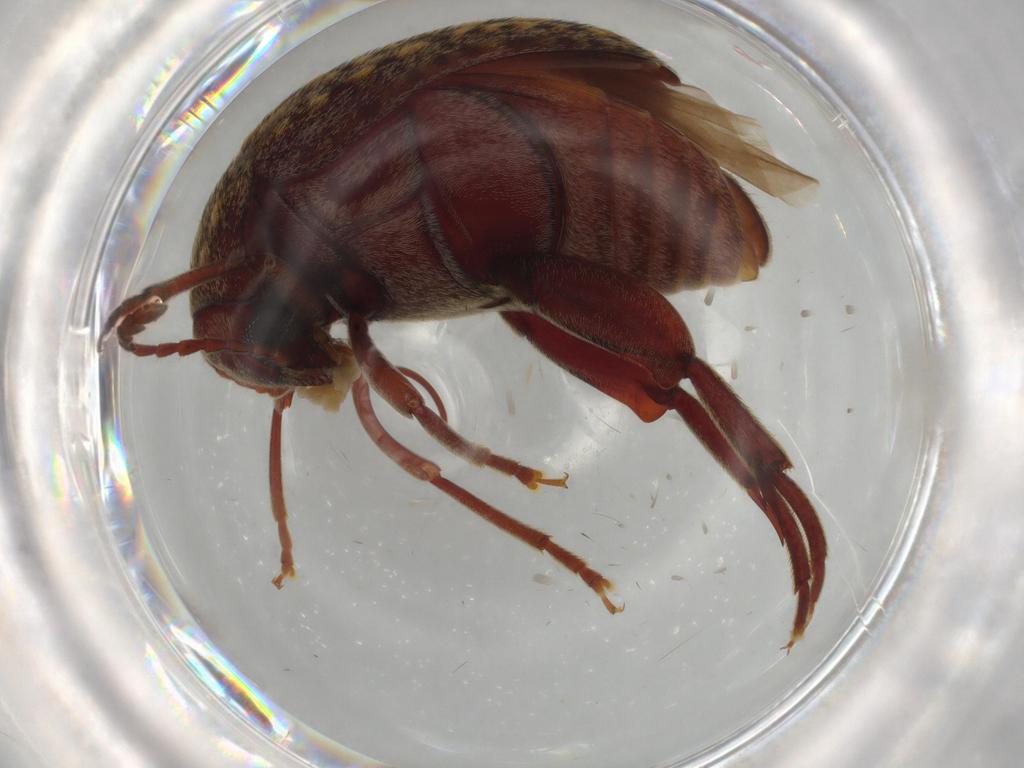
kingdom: Animalia
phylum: Arthropoda
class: Insecta
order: Coleoptera
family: Chrysomelidae
